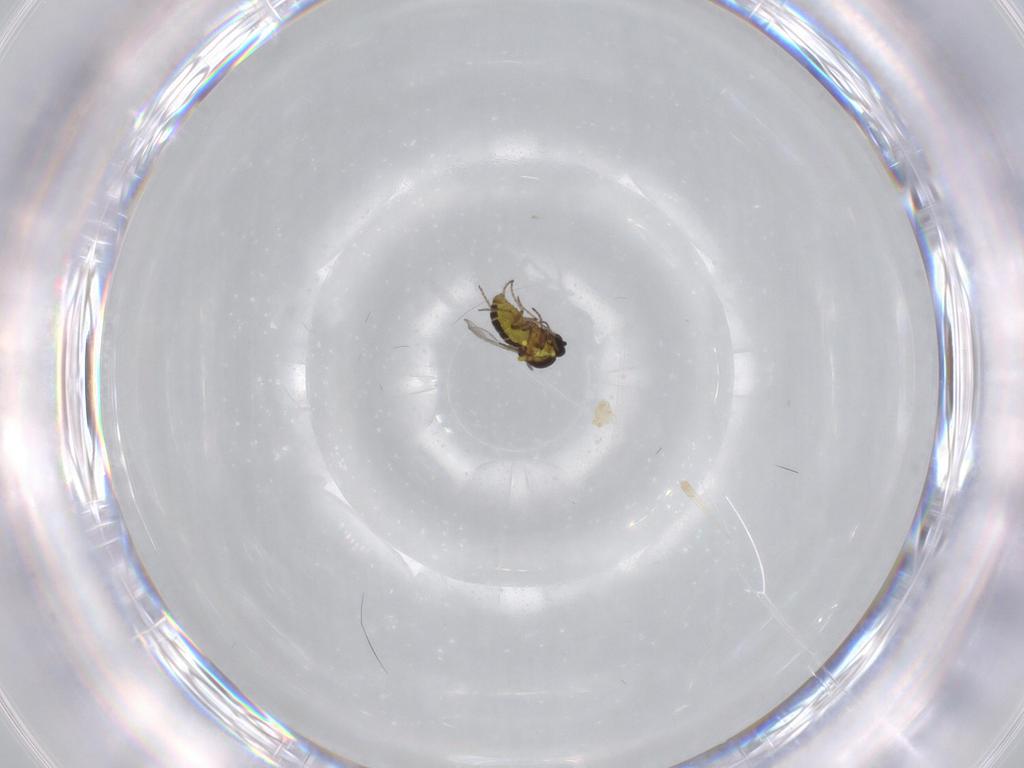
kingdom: Animalia
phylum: Arthropoda
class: Insecta
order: Diptera
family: Ceratopogonidae
